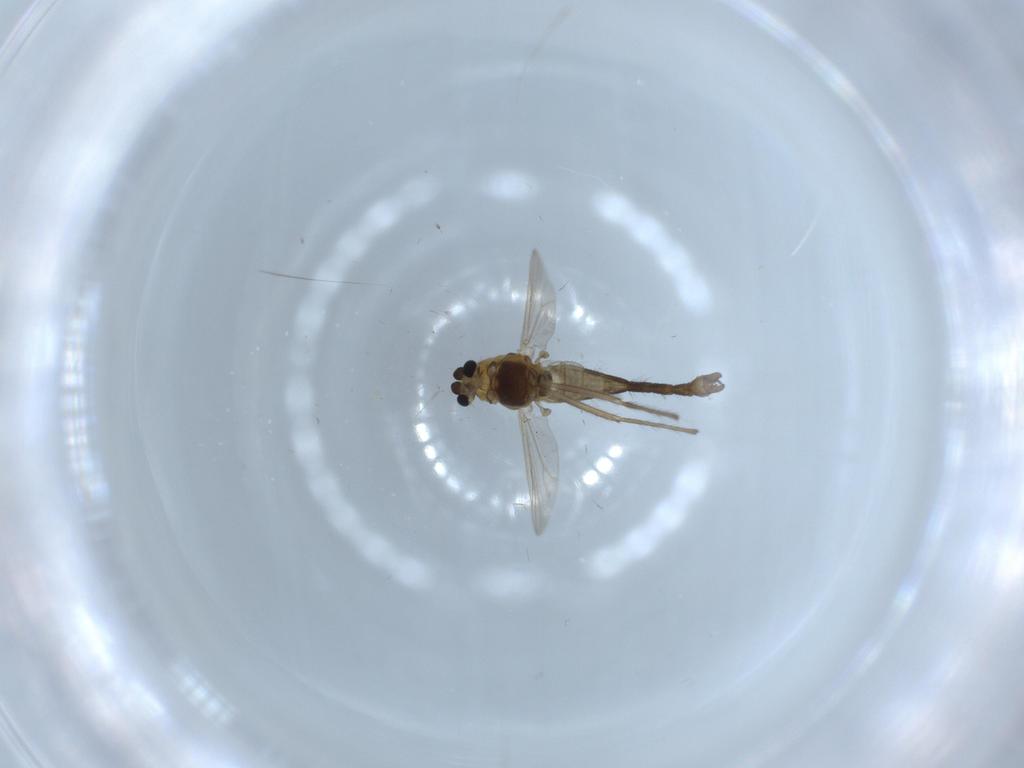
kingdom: Animalia
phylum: Arthropoda
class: Insecta
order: Diptera
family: Chironomidae
